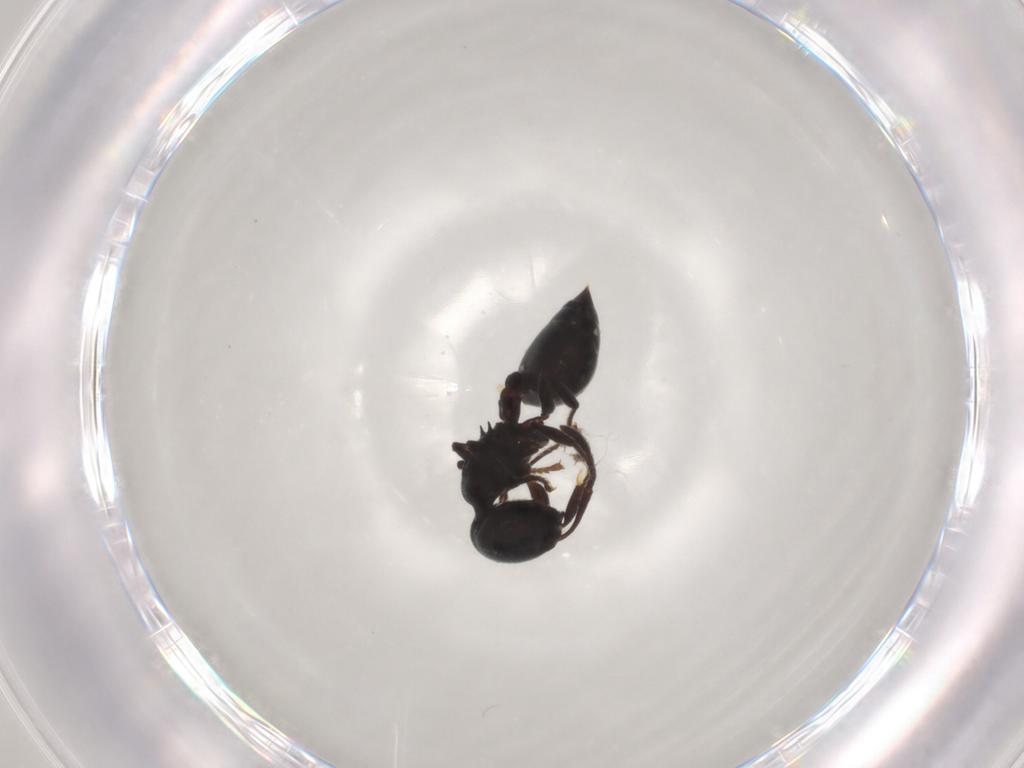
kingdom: Animalia
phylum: Arthropoda
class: Insecta
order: Hymenoptera
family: Formicidae
